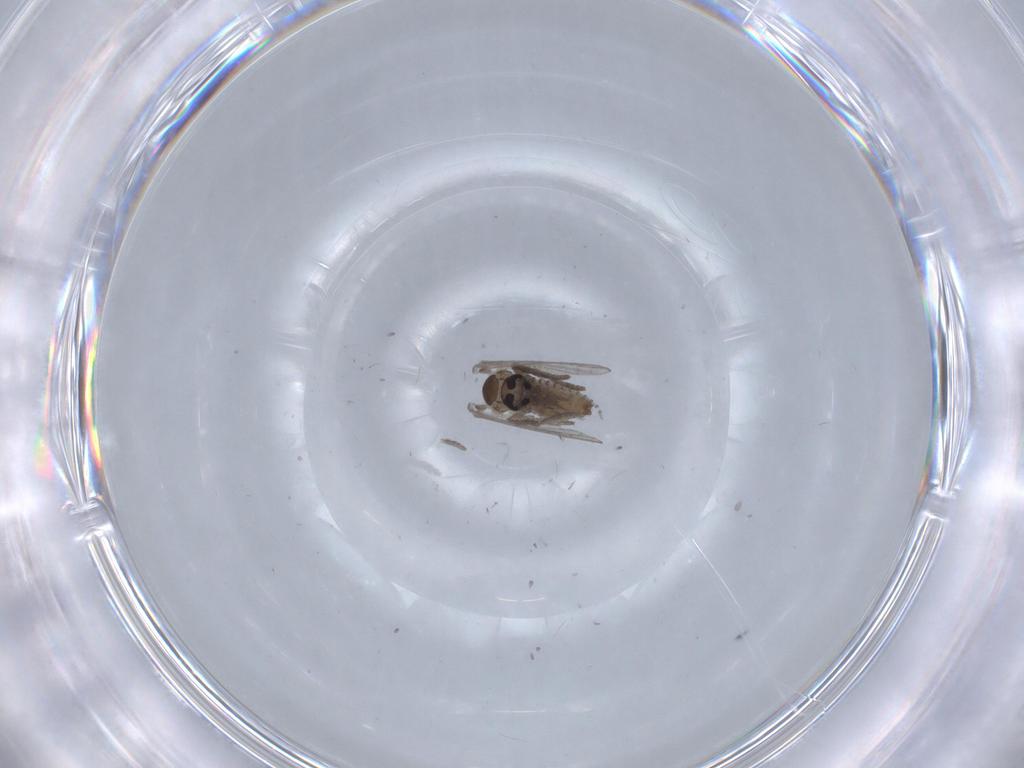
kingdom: Animalia
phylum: Arthropoda
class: Insecta
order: Diptera
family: Psychodidae
